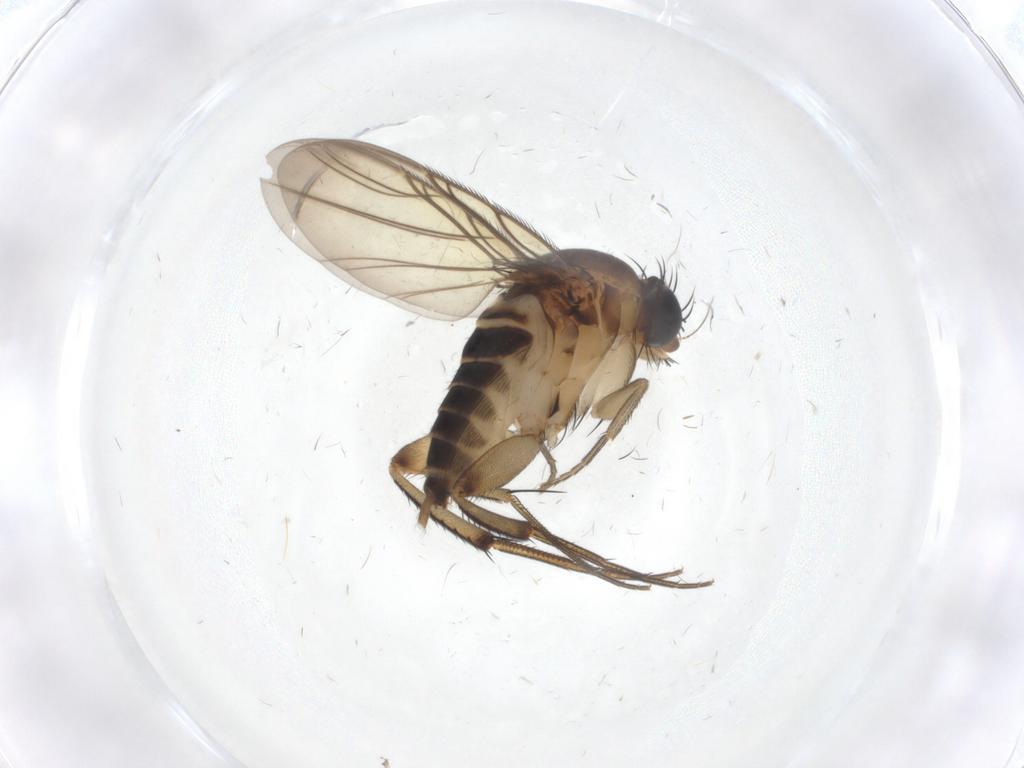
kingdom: Animalia
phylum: Arthropoda
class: Insecta
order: Diptera
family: Phoridae
